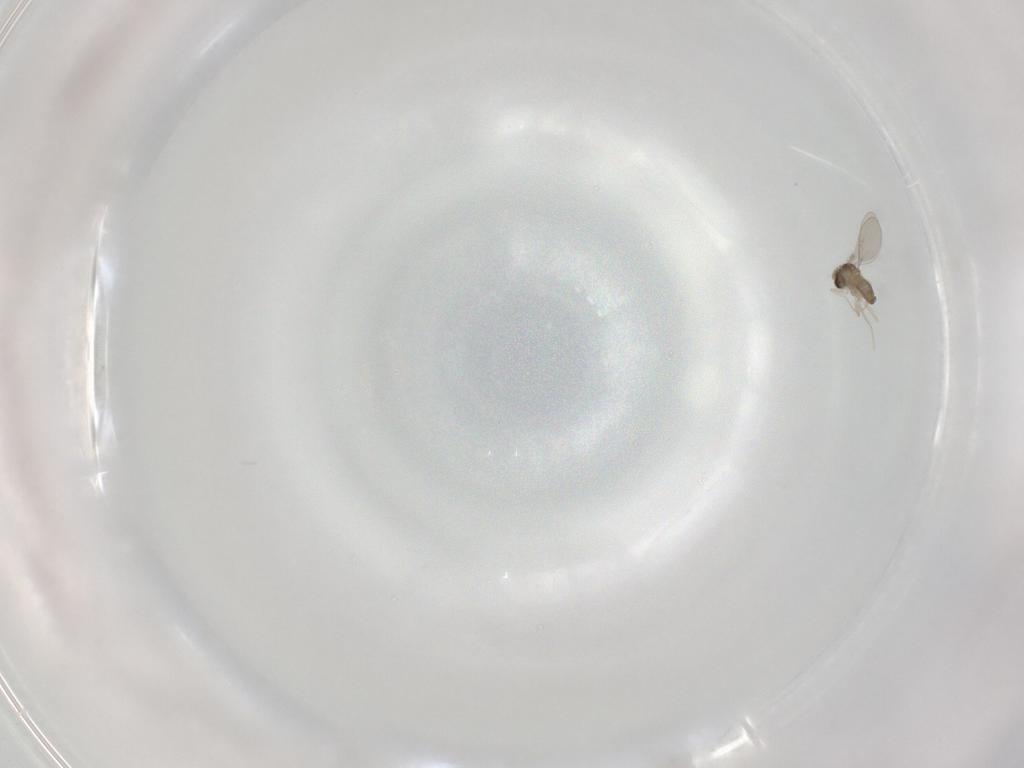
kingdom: Animalia
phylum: Arthropoda
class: Insecta
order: Diptera
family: Cecidomyiidae
